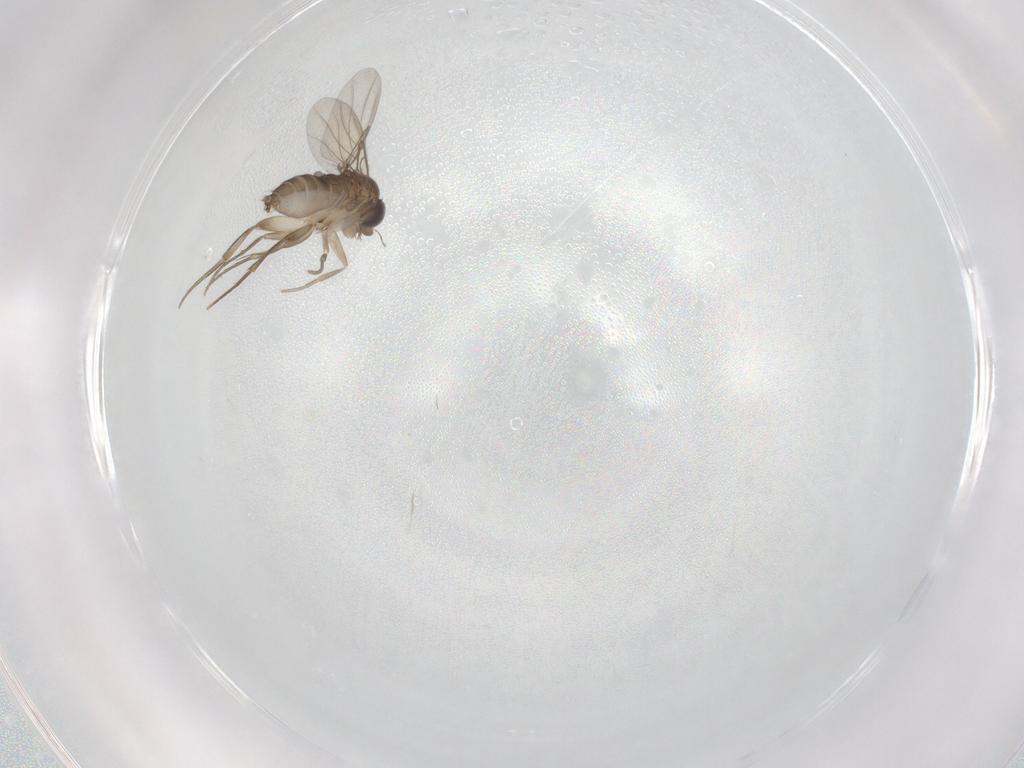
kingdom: Animalia
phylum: Arthropoda
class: Insecta
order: Diptera
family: Phoridae
